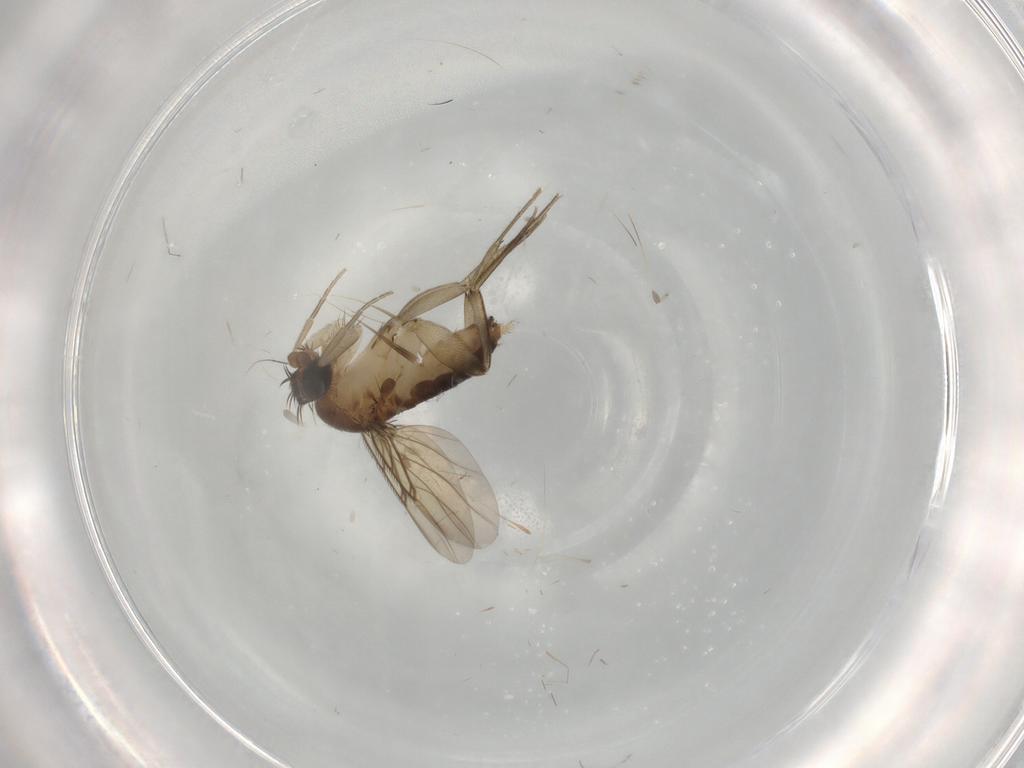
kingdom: Animalia
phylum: Arthropoda
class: Insecta
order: Diptera
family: Phoridae
